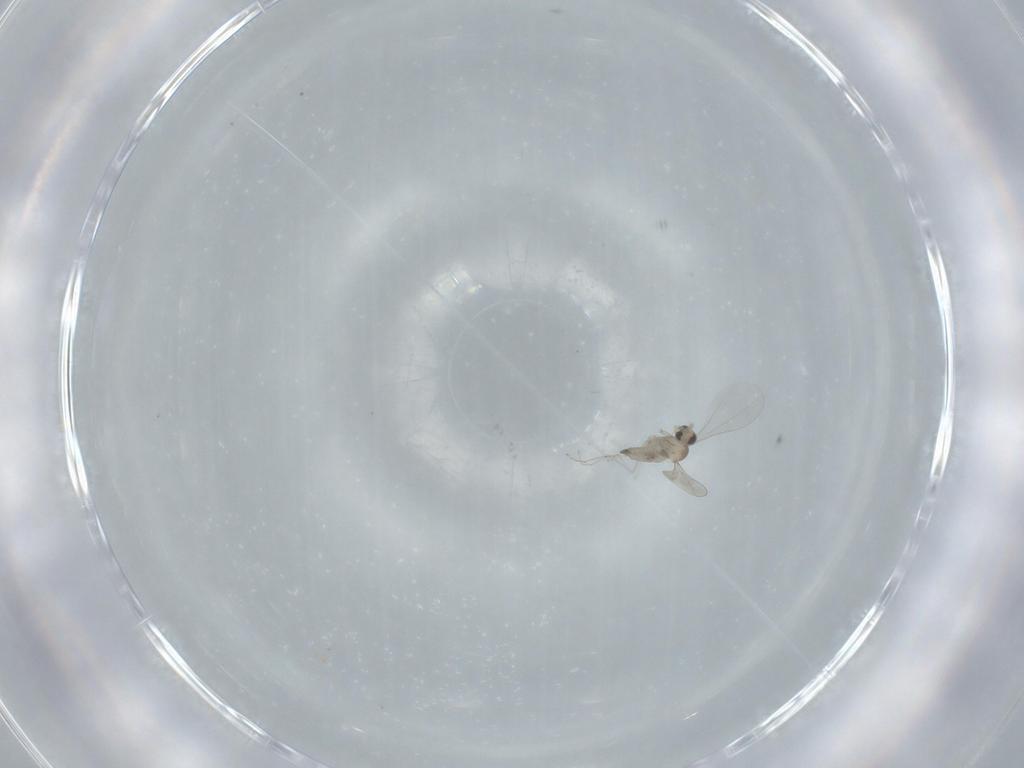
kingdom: Animalia
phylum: Arthropoda
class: Insecta
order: Diptera
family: Cecidomyiidae
